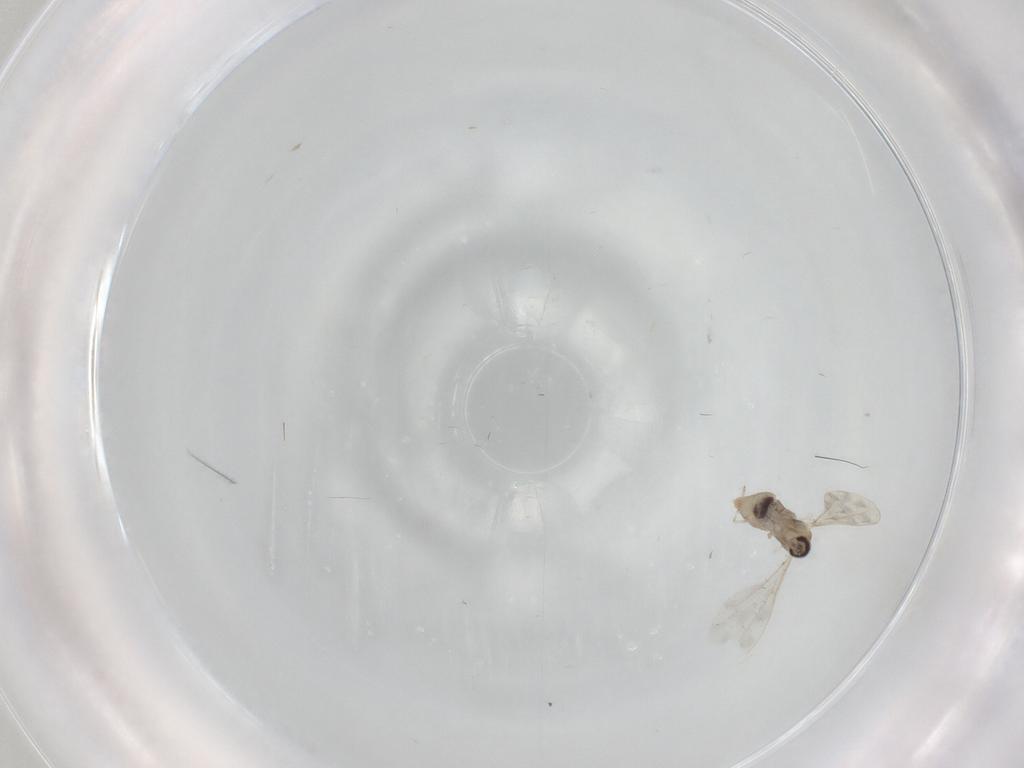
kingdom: Animalia
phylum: Arthropoda
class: Insecta
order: Diptera
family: Cecidomyiidae
